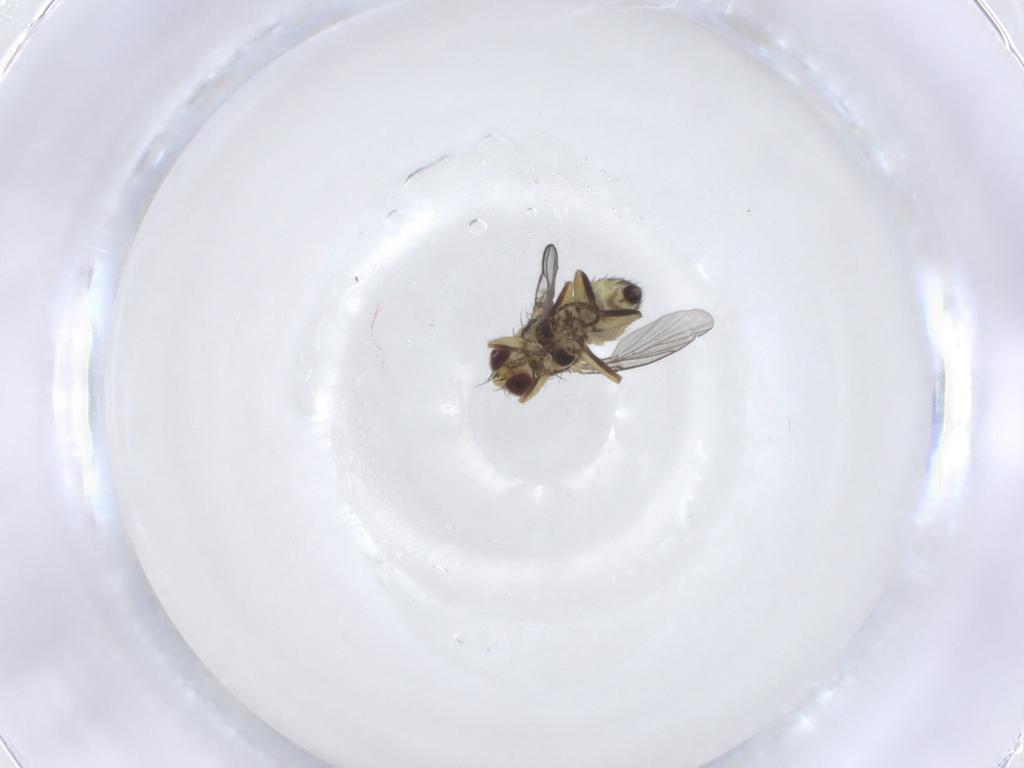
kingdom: Animalia
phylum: Arthropoda
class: Insecta
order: Diptera
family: Agromyzidae
